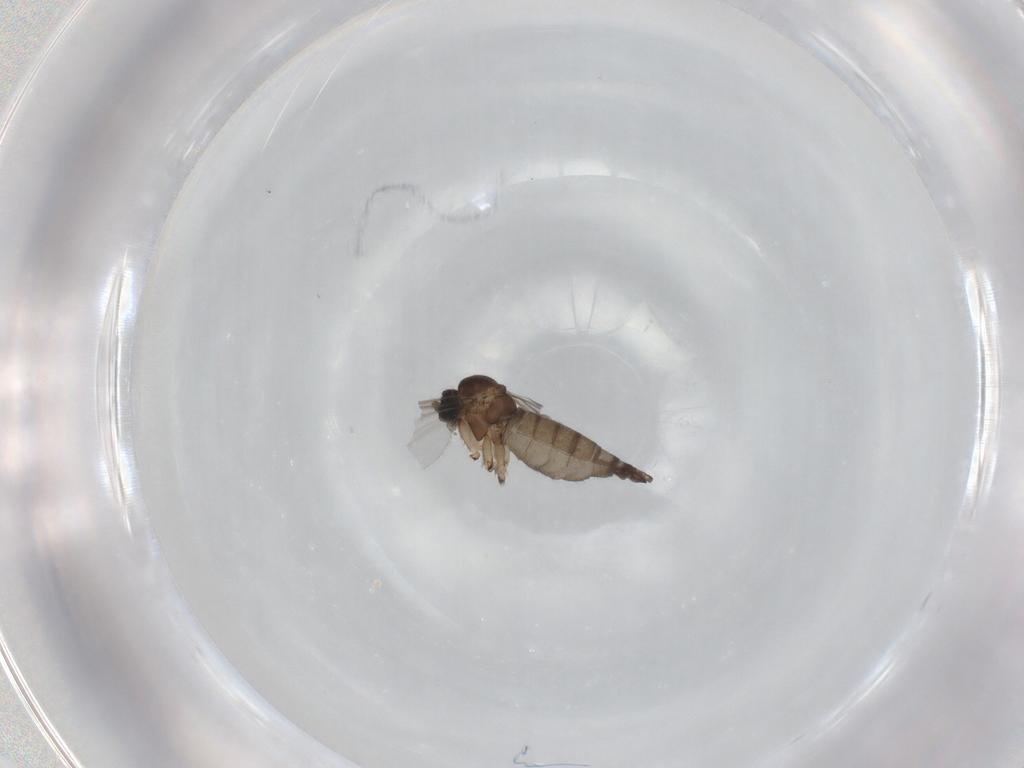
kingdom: Animalia
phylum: Arthropoda
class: Insecta
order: Diptera
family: Sciaridae
